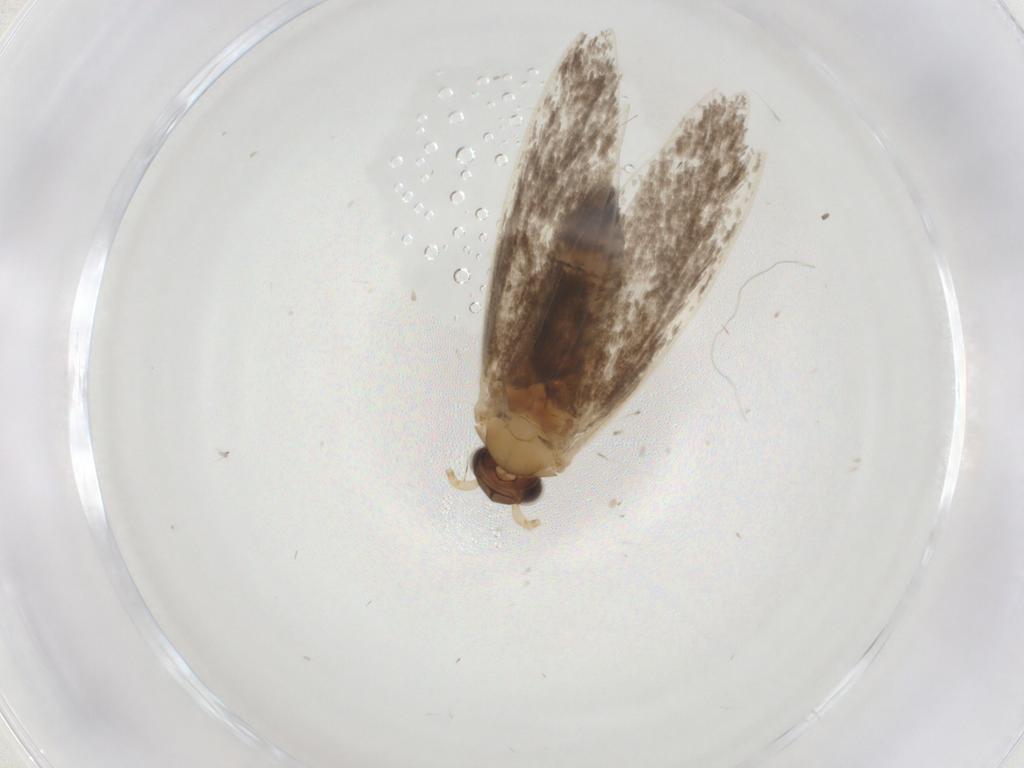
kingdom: Animalia
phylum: Arthropoda
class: Insecta
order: Lepidoptera
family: Tineidae
